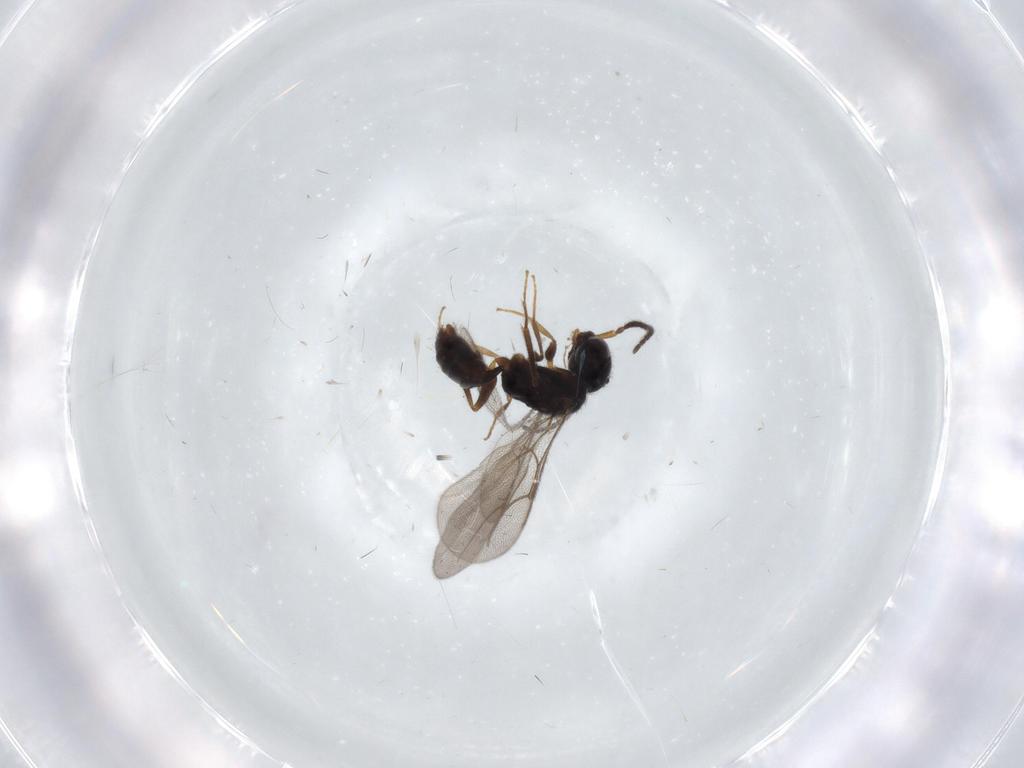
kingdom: Animalia
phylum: Arthropoda
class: Insecta
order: Hymenoptera
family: Bethylidae
